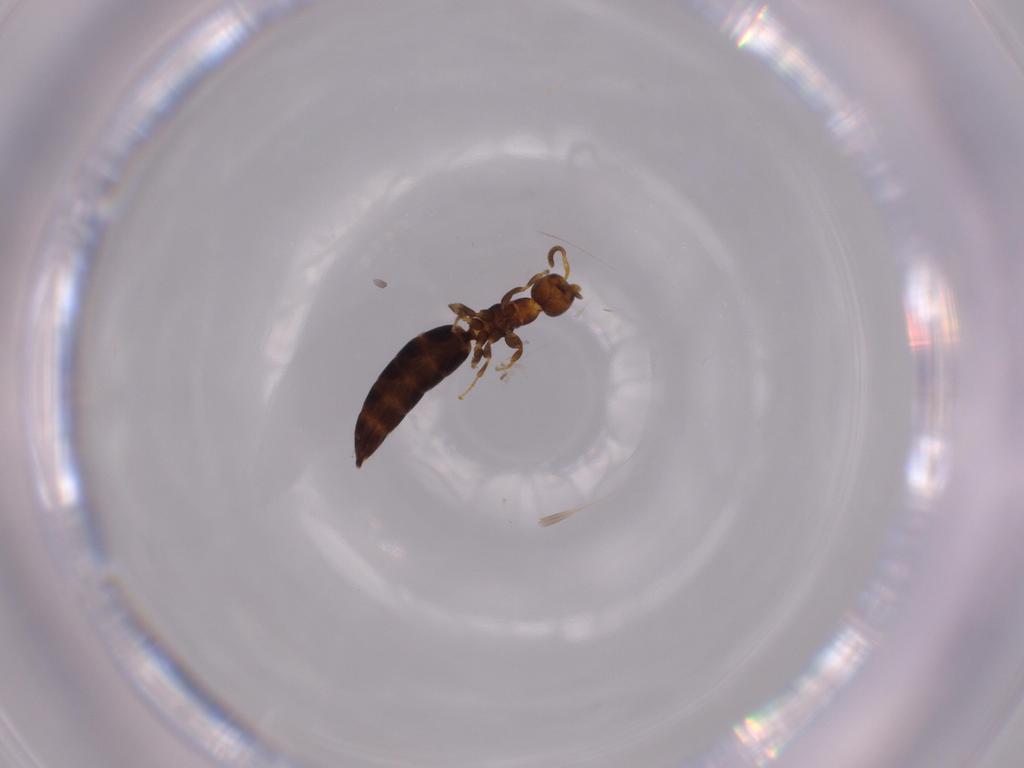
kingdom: Animalia
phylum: Arthropoda
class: Insecta
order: Hymenoptera
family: Bethylidae
